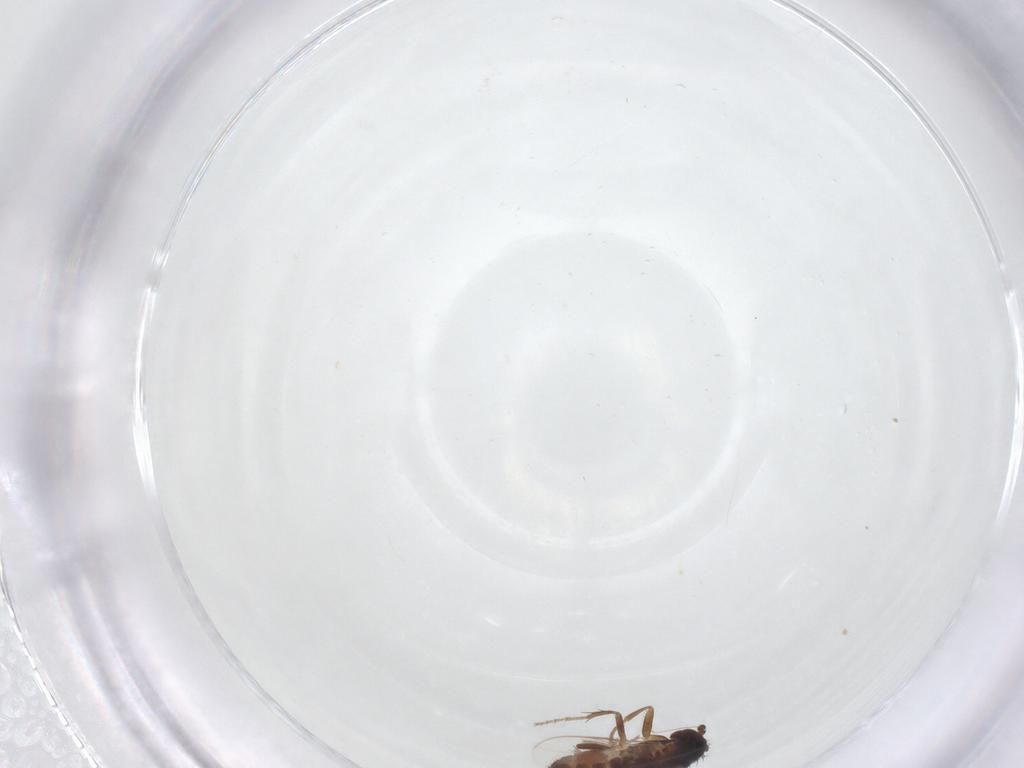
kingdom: Animalia
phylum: Arthropoda
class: Insecta
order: Diptera
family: Sphaeroceridae
